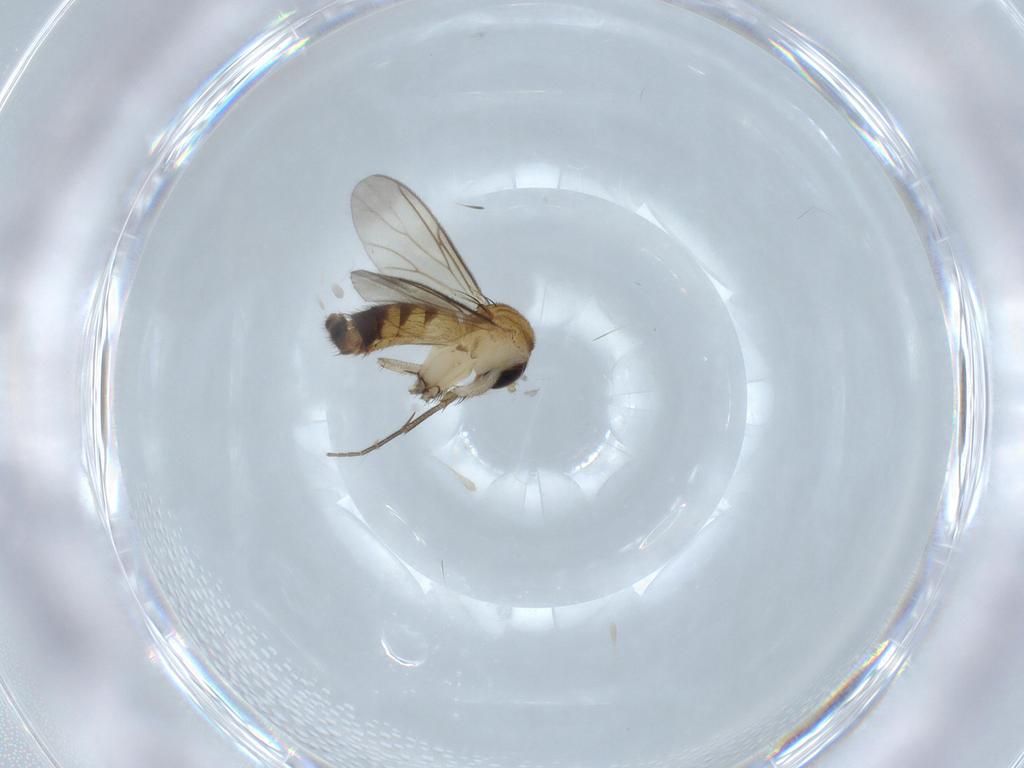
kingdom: Animalia
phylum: Arthropoda
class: Insecta
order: Diptera
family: Mycetophilidae
